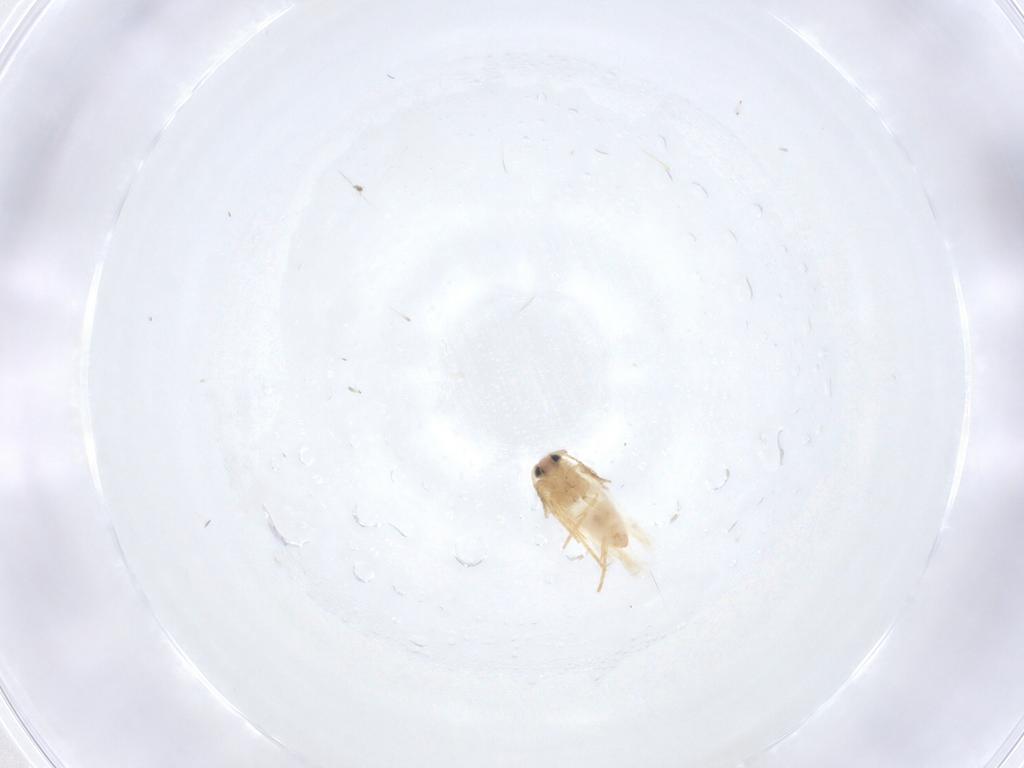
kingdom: Animalia
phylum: Arthropoda
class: Insecta
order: Lepidoptera
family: Crambidae
